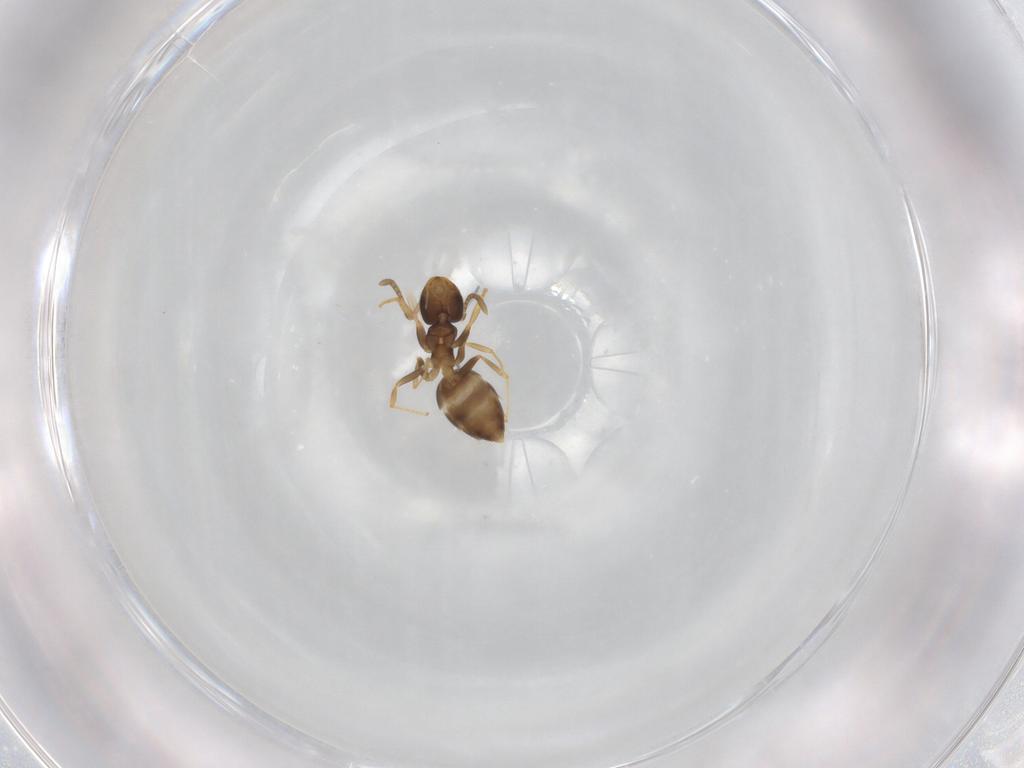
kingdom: Animalia
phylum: Arthropoda
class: Insecta
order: Hymenoptera
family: Formicidae
